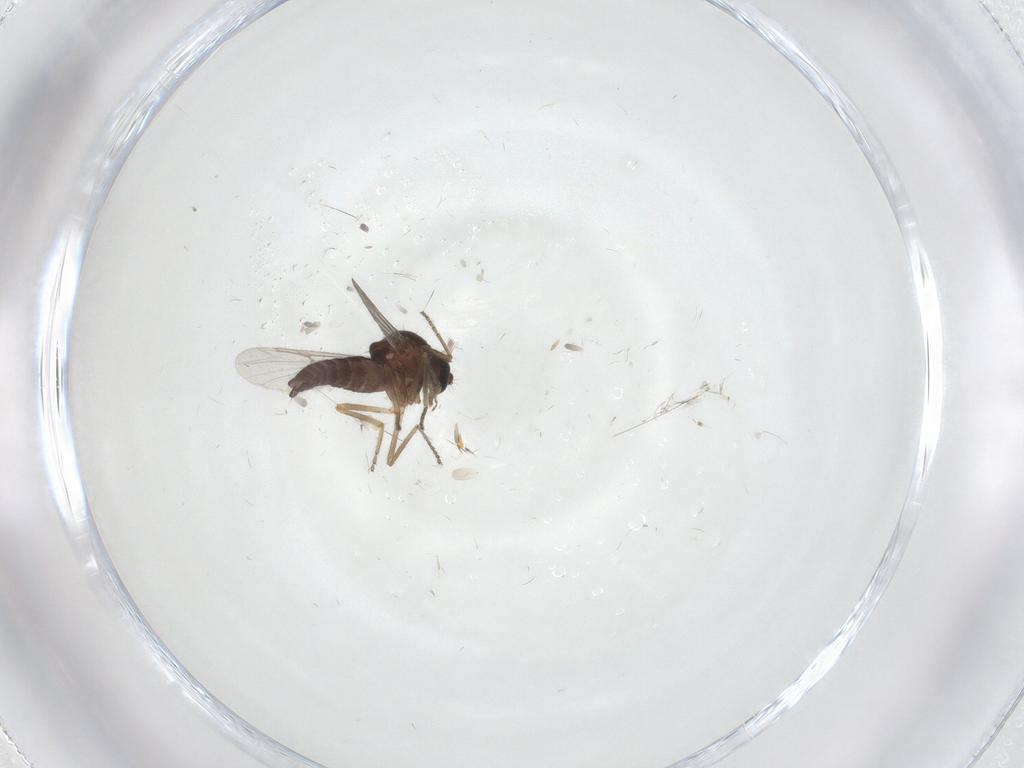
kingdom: Animalia
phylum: Arthropoda
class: Insecta
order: Diptera
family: Ceratopogonidae
